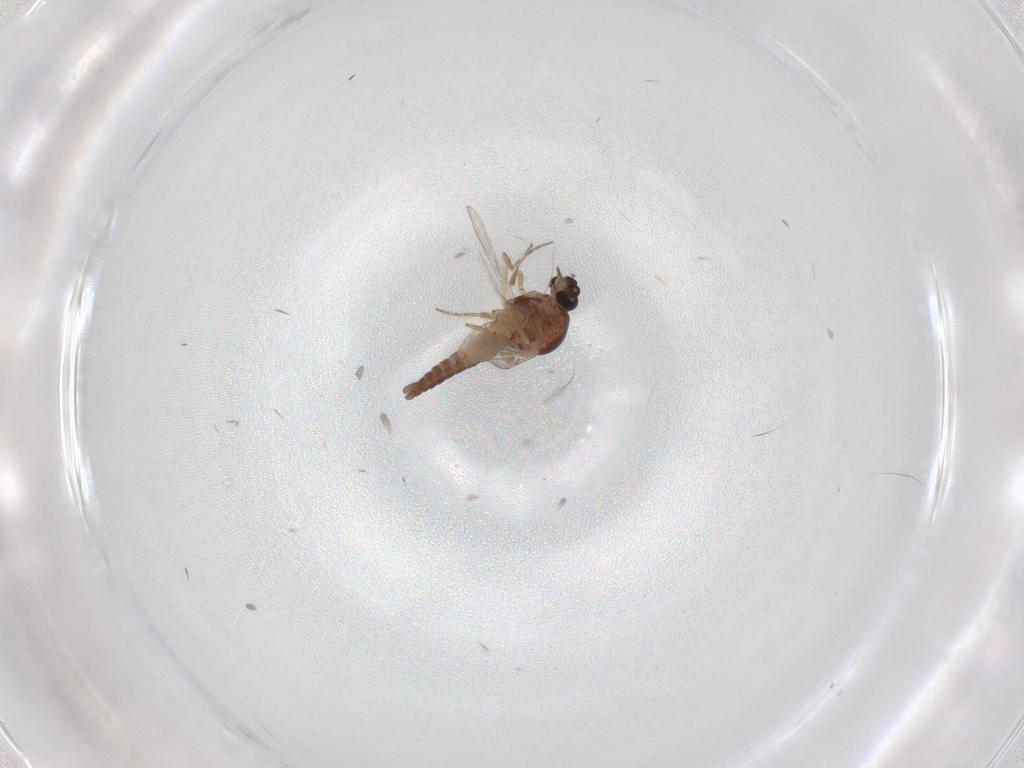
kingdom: Animalia
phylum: Arthropoda
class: Insecta
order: Diptera
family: Ceratopogonidae
